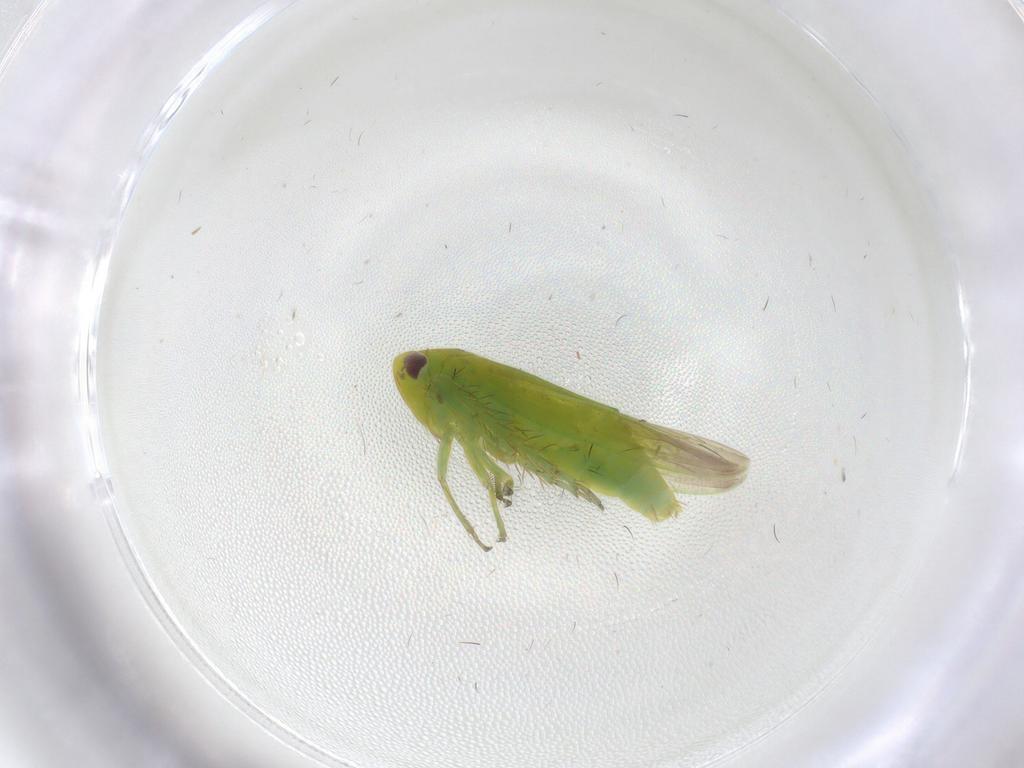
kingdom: Animalia
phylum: Arthropoda
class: Insecta
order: Hemiptera
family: Cicadellidae
